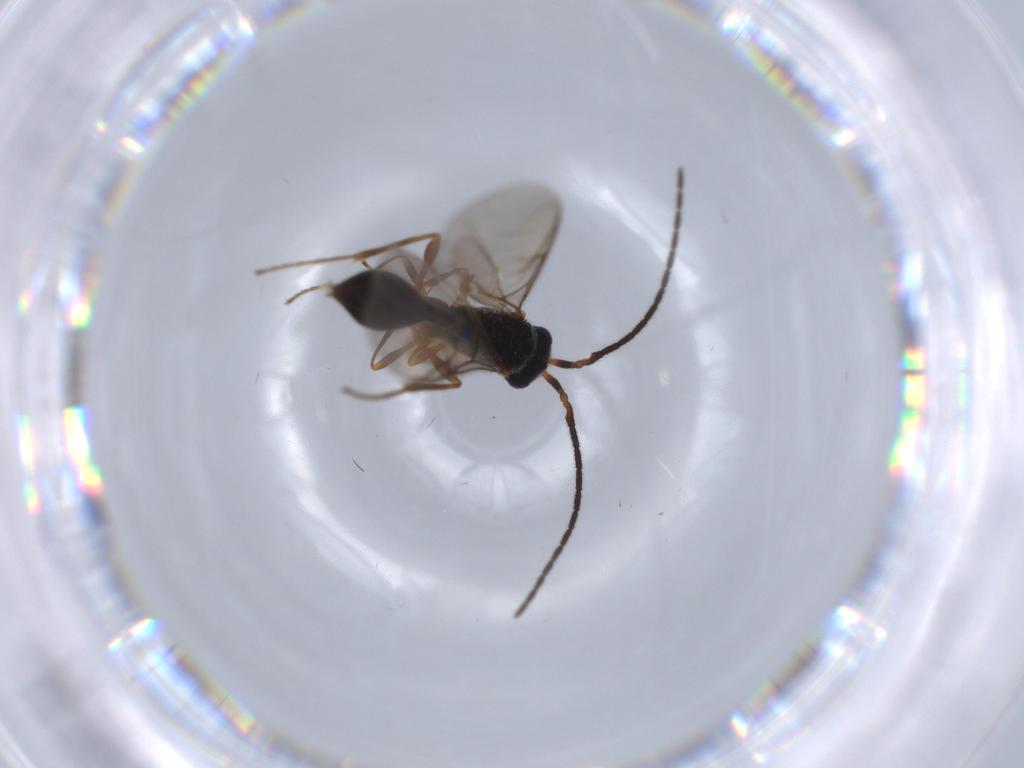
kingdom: Animalia
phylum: Arthropoda
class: Insecta
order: Hymenoptera
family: Diapriidae
